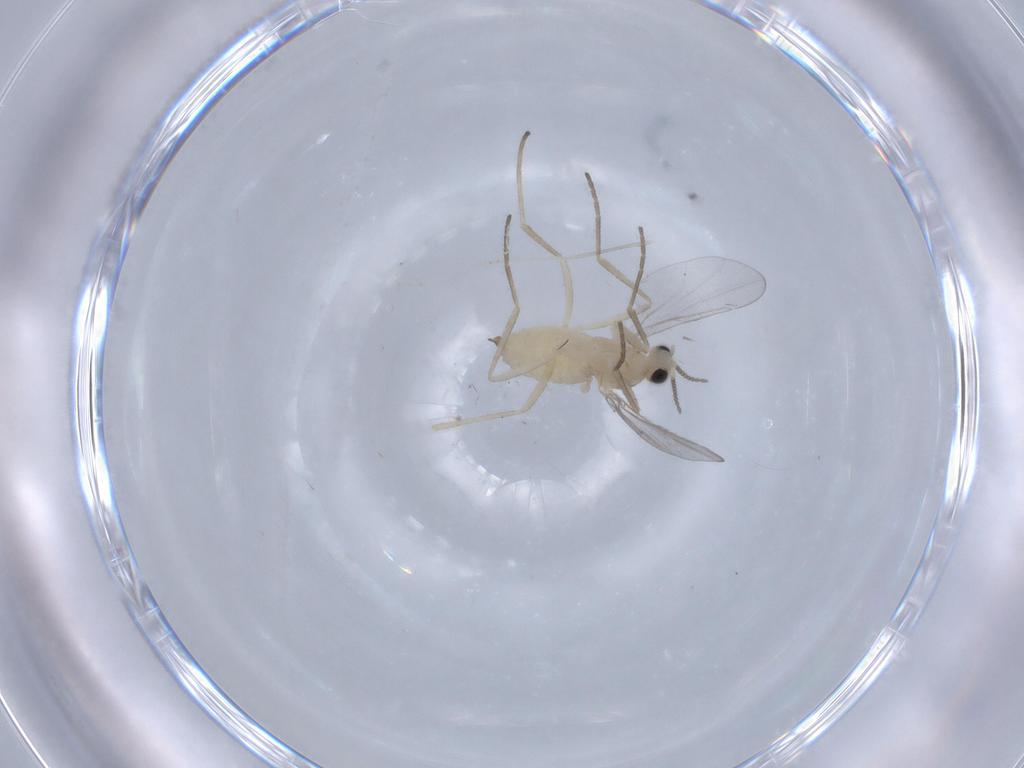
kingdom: Animalia
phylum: Arthropoda
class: Insecta
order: Diptera
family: Cecidomyiidae
